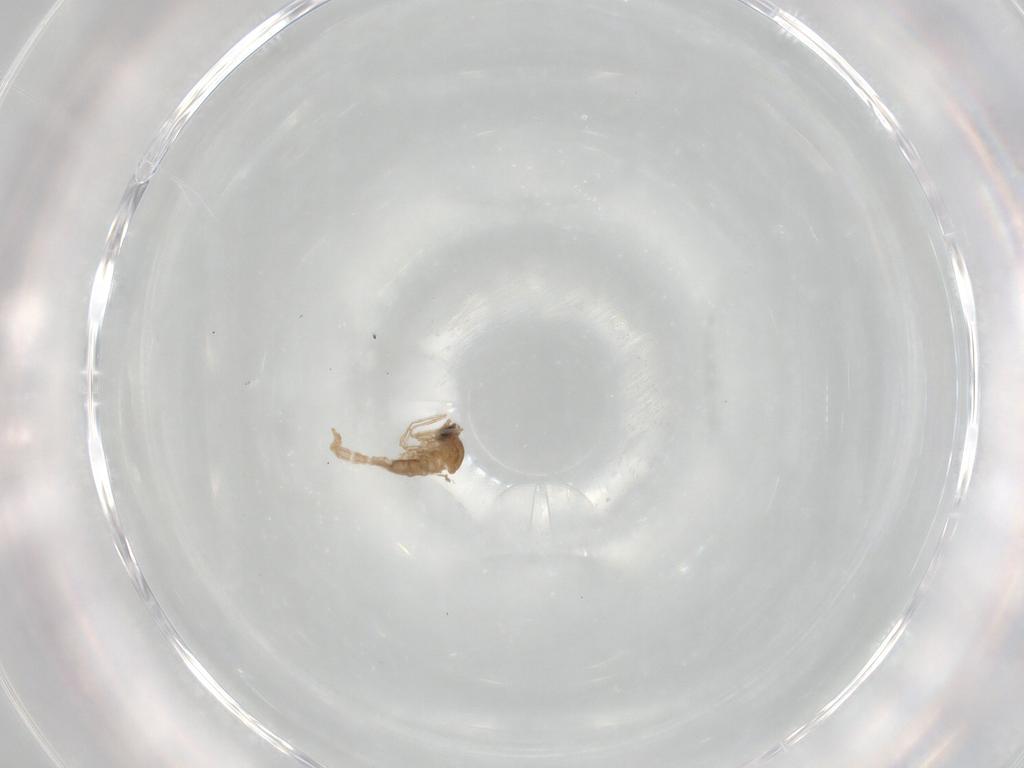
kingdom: Animalia
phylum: Arthropoda
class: Insecta
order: Diptera
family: Cecidomyiidae
